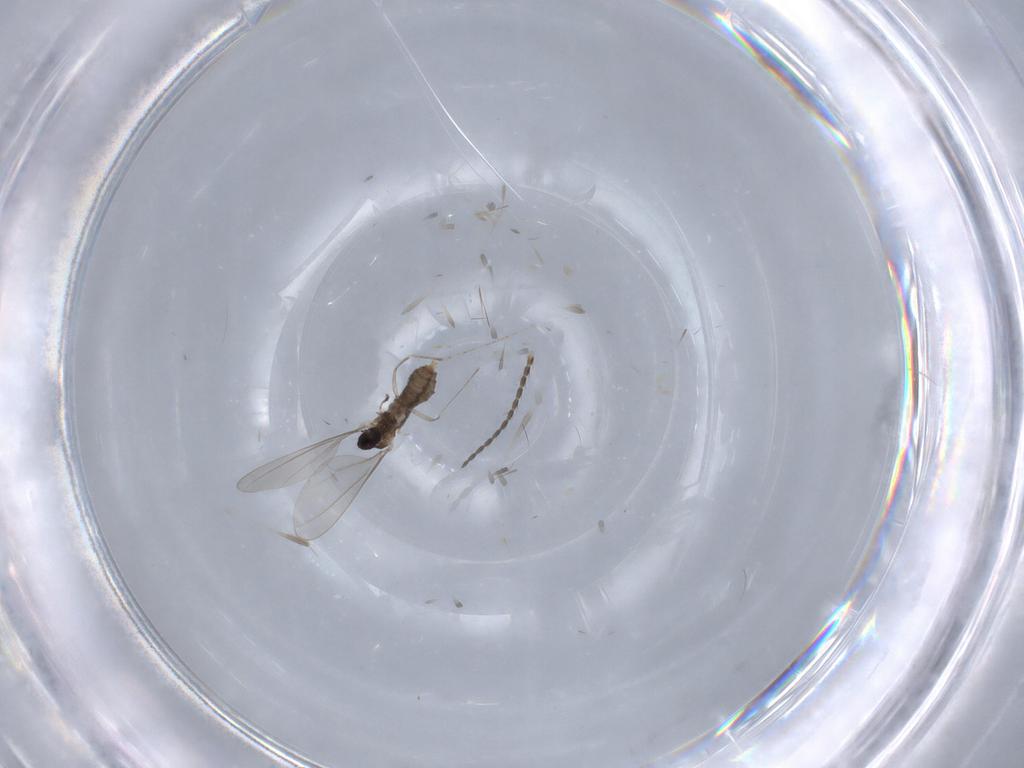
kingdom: Animalia
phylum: Arthropoda
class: Insecta
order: Diptera
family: Cecidomyiidae
